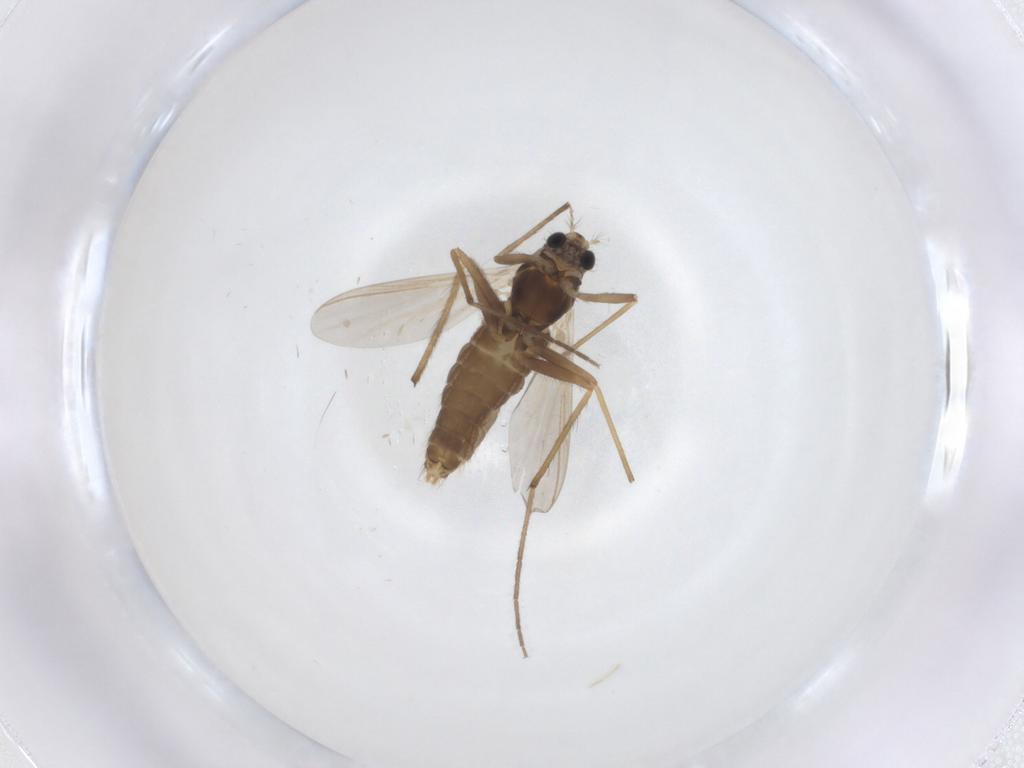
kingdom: Animalia
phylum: Arthropoda
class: Insecta
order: Diptera
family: Chironomidae
